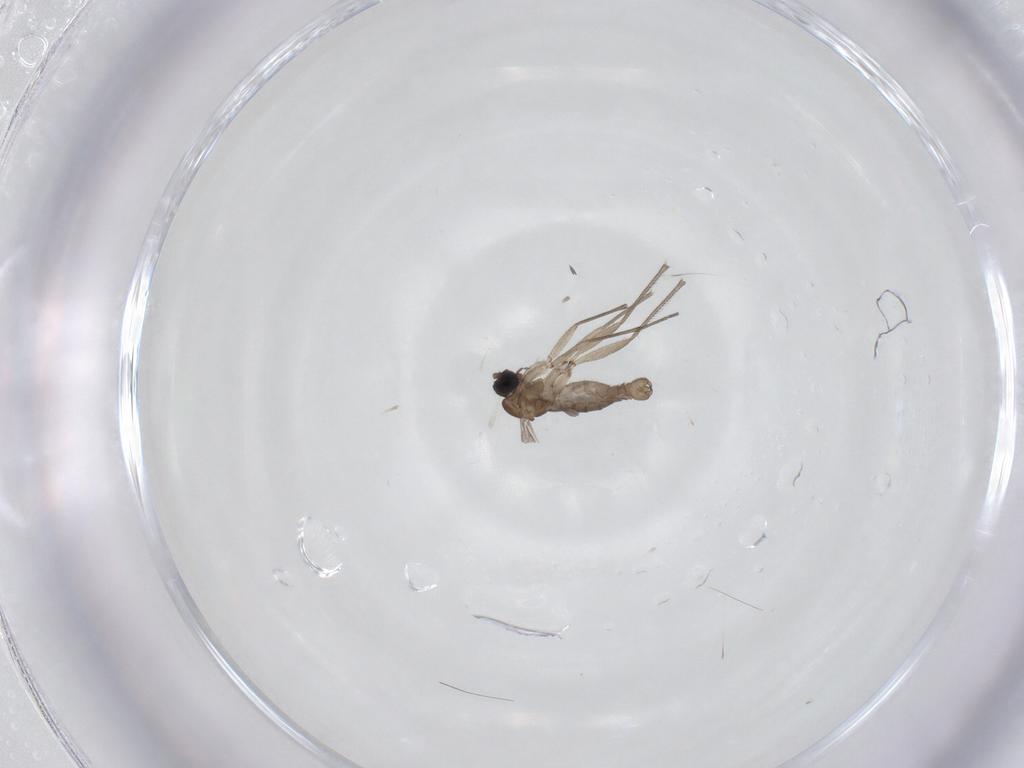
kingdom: Animalia
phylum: Arthropoda
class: Insecta
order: Diptera
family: Sciaridae
